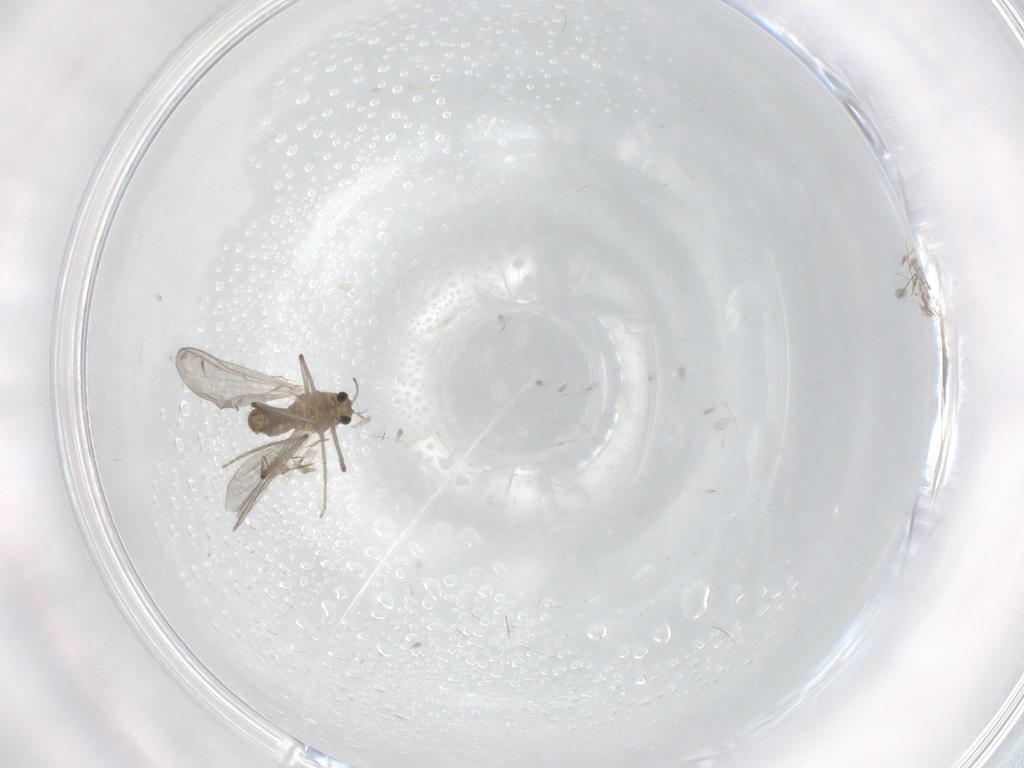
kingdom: Animalia
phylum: Arthropoda
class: Insecta
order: Diptera
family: Chironomidae
